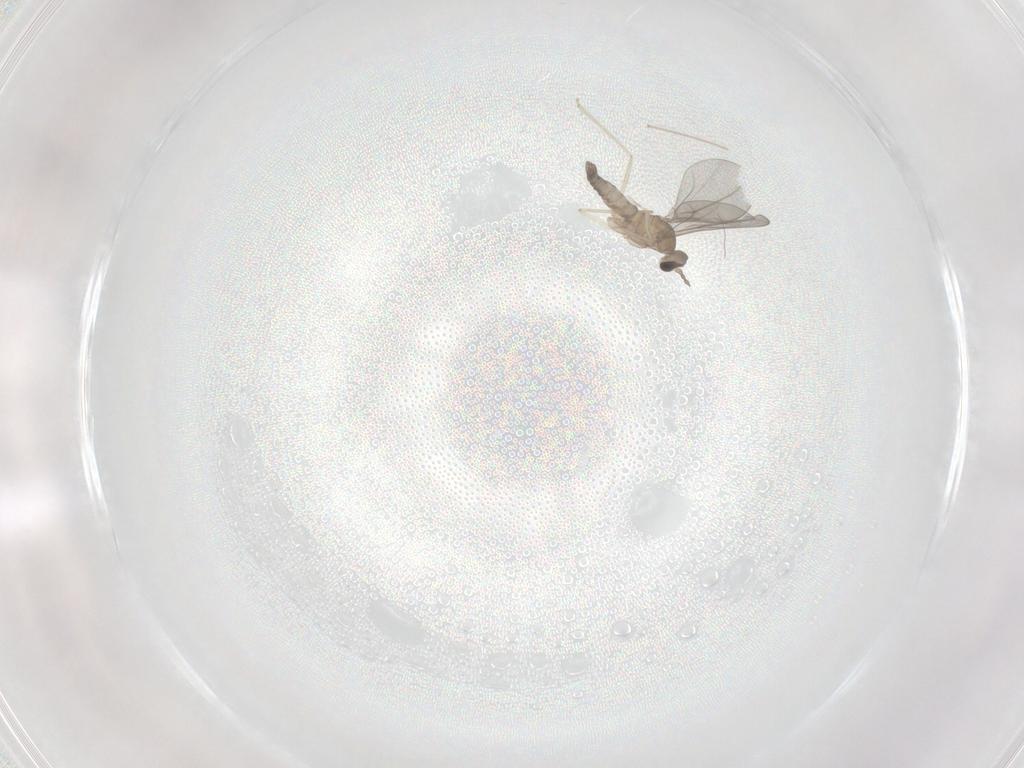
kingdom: Animalia
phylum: Arthropoda
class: Insecta
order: Diptera
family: Cecidomyiidae
